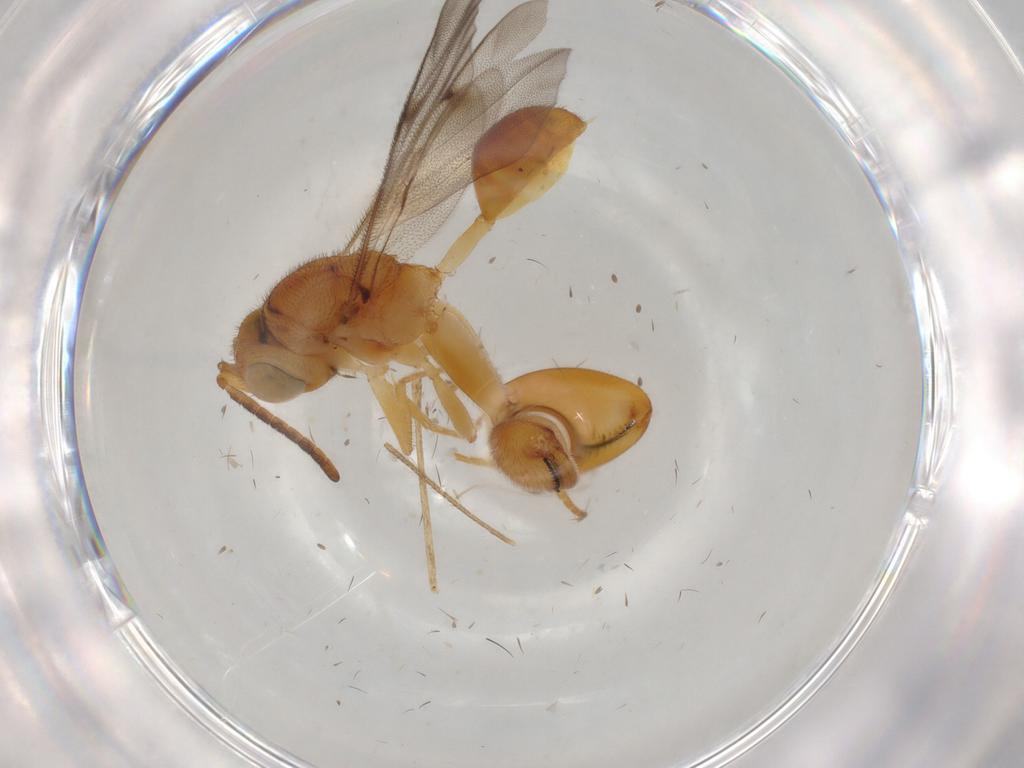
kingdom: Animalia
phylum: Arthropoda
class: Insecta
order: Hymenoptera
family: Chalcididae
